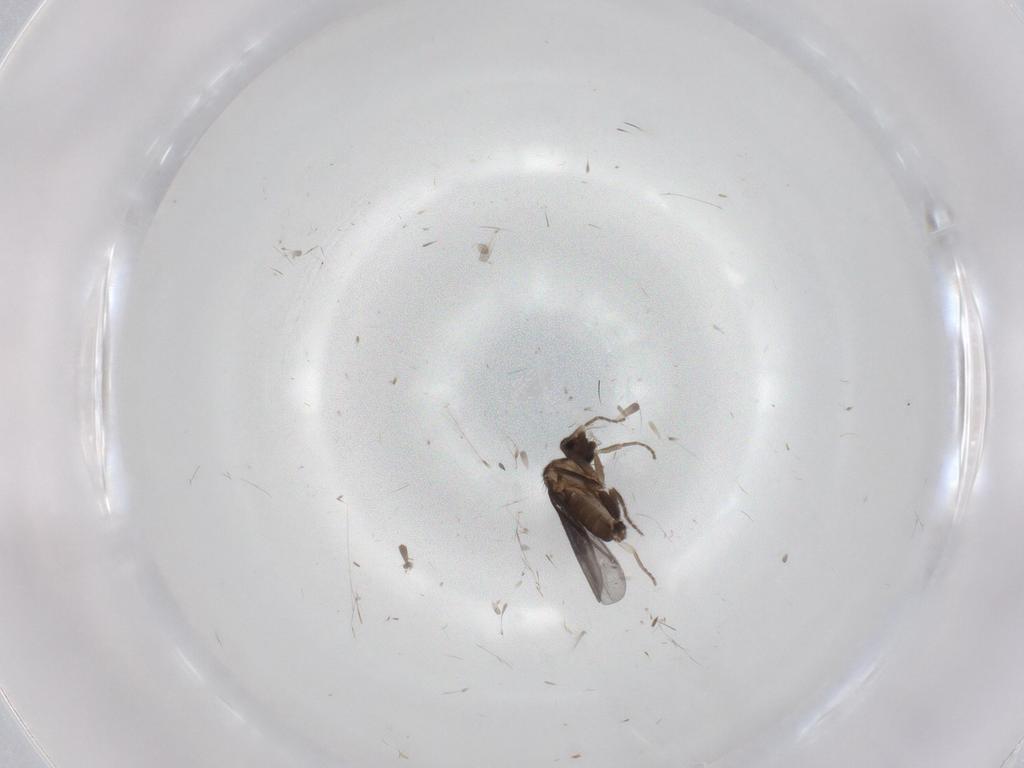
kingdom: Animalia
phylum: Arthropoda
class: Insecta
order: Diptera
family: Phoridae
